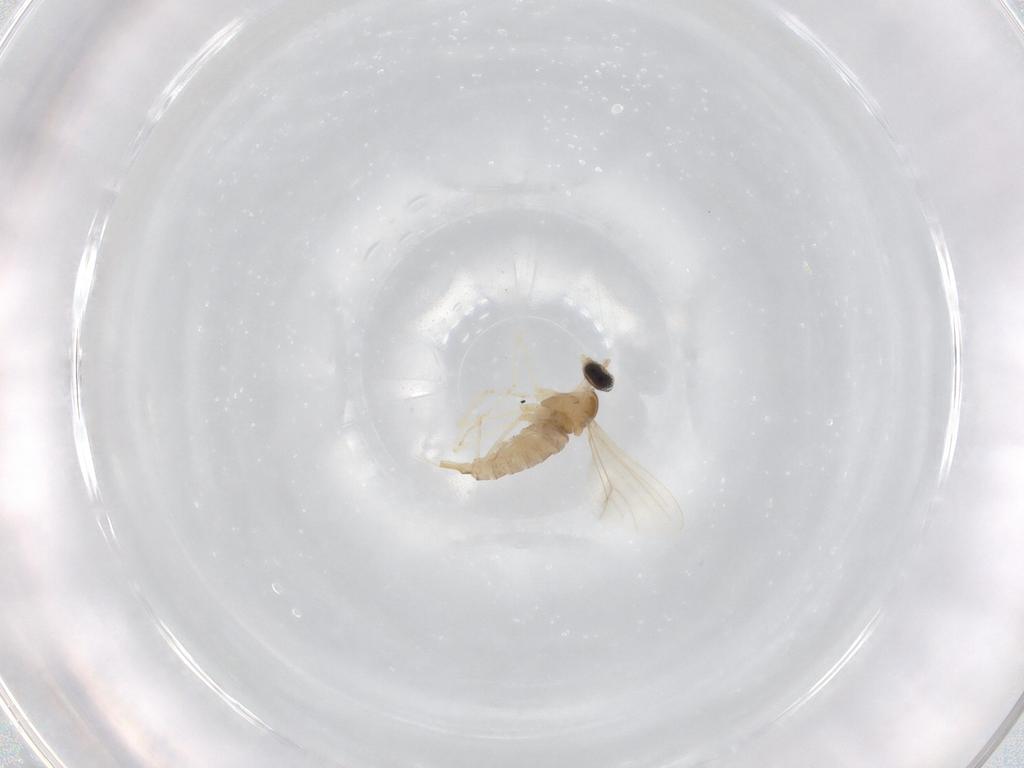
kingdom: Animalia
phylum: Arthropoda
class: Insecta
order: Diptera
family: Cecidomyiidae
